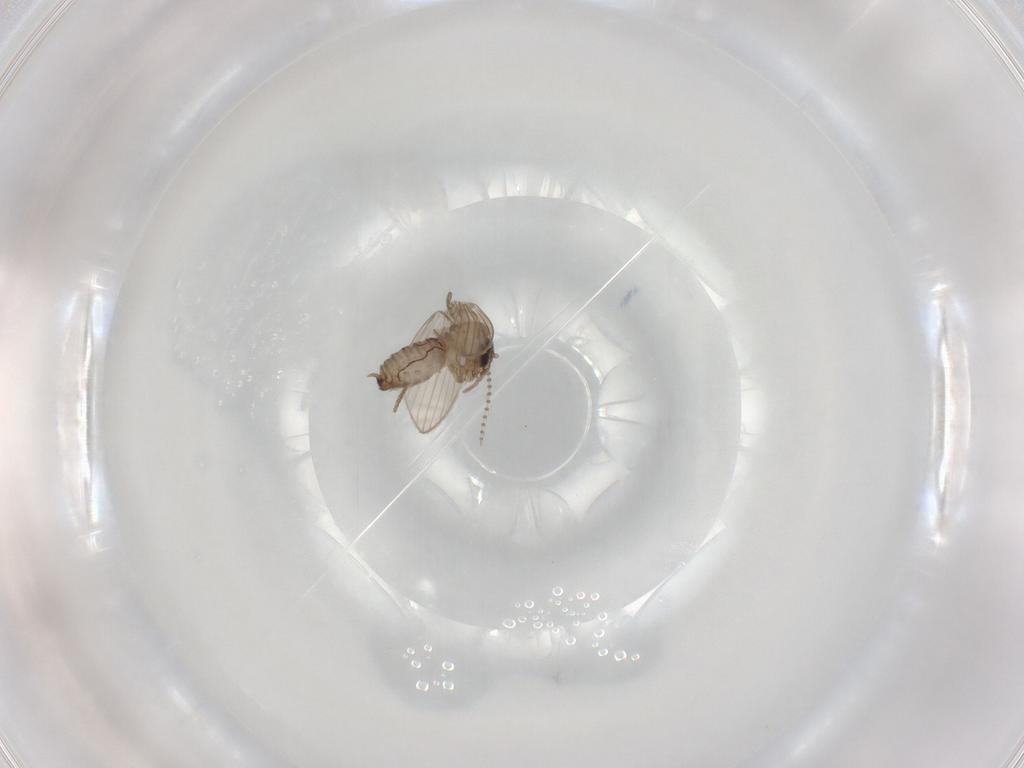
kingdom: Animalia
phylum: Arthropoda
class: Insecta
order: Diptera
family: Psychodidae
